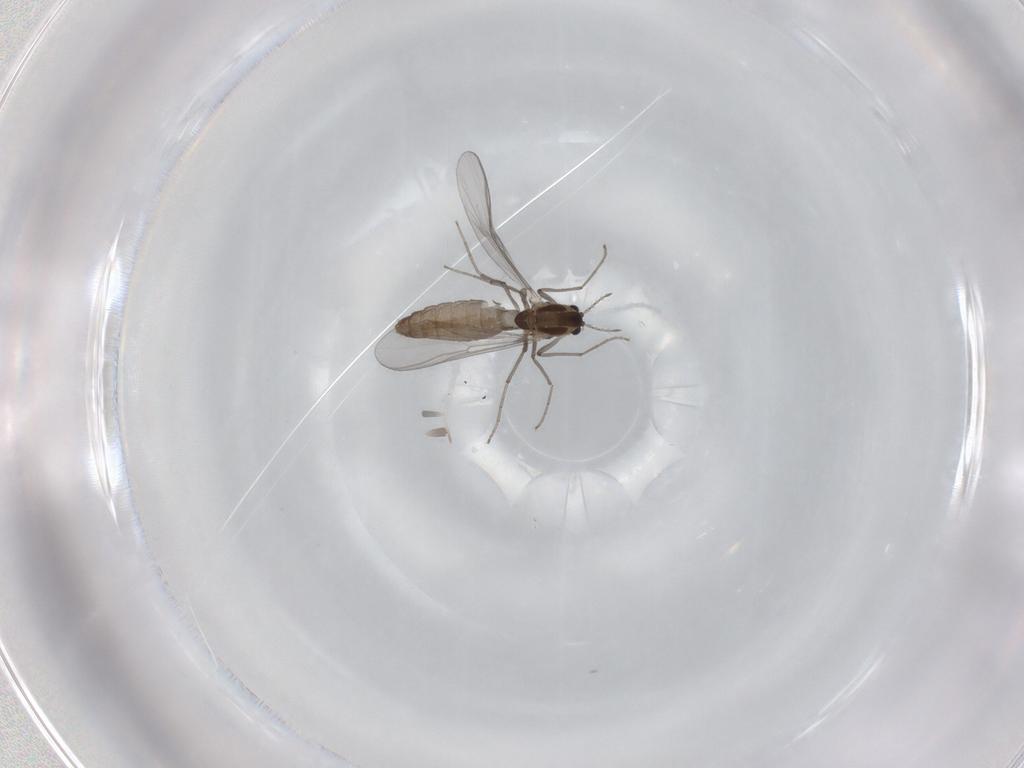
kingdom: Animalia
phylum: Arthropoda
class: Insecta
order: Diptera
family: Chironomidae
